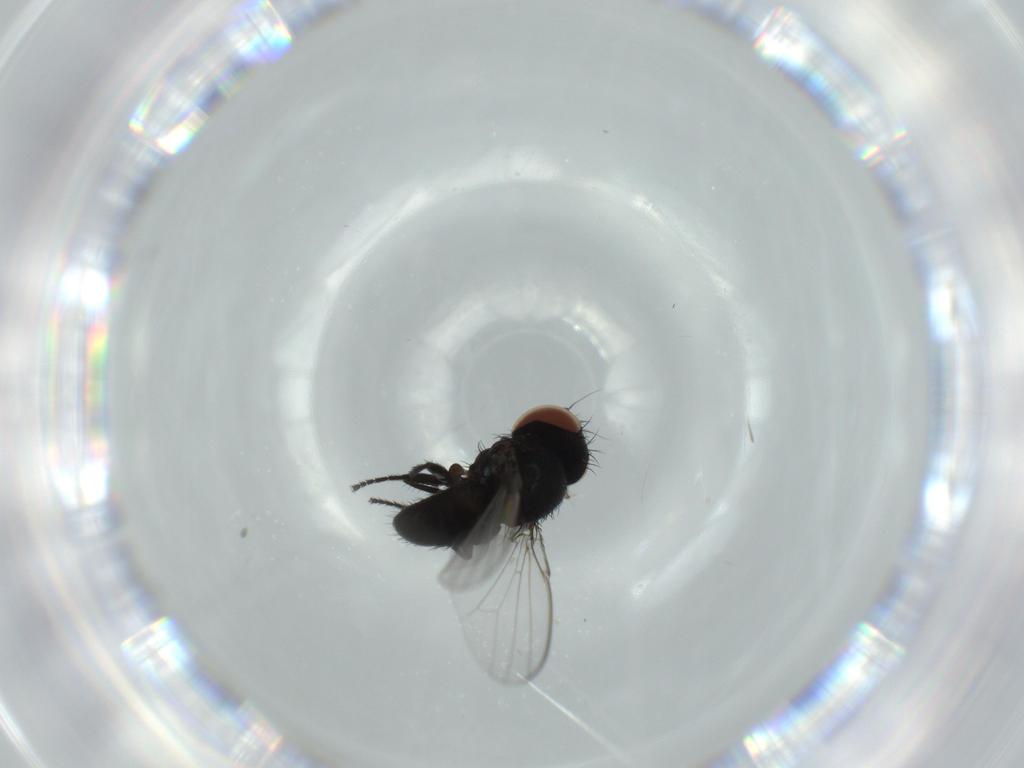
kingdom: Animalia
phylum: Arthropoda
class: Insecta
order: Diptera
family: Milichiidae
